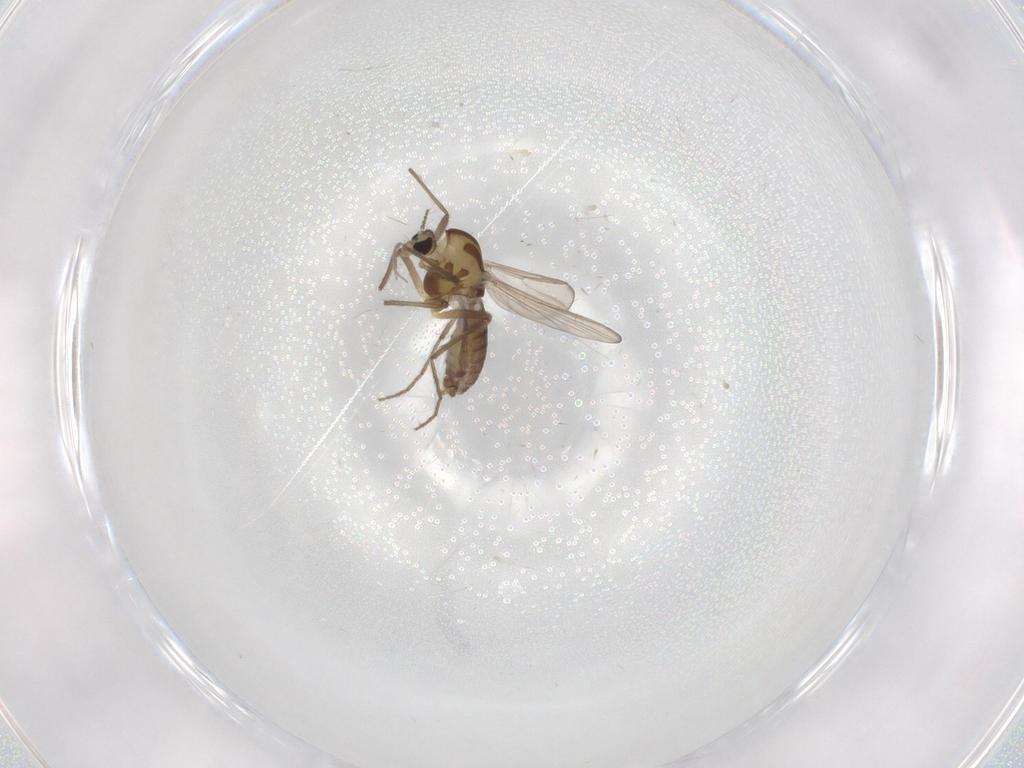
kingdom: Animalia
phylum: Arthropoda
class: Insecta
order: Diptera
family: Chironomidae
